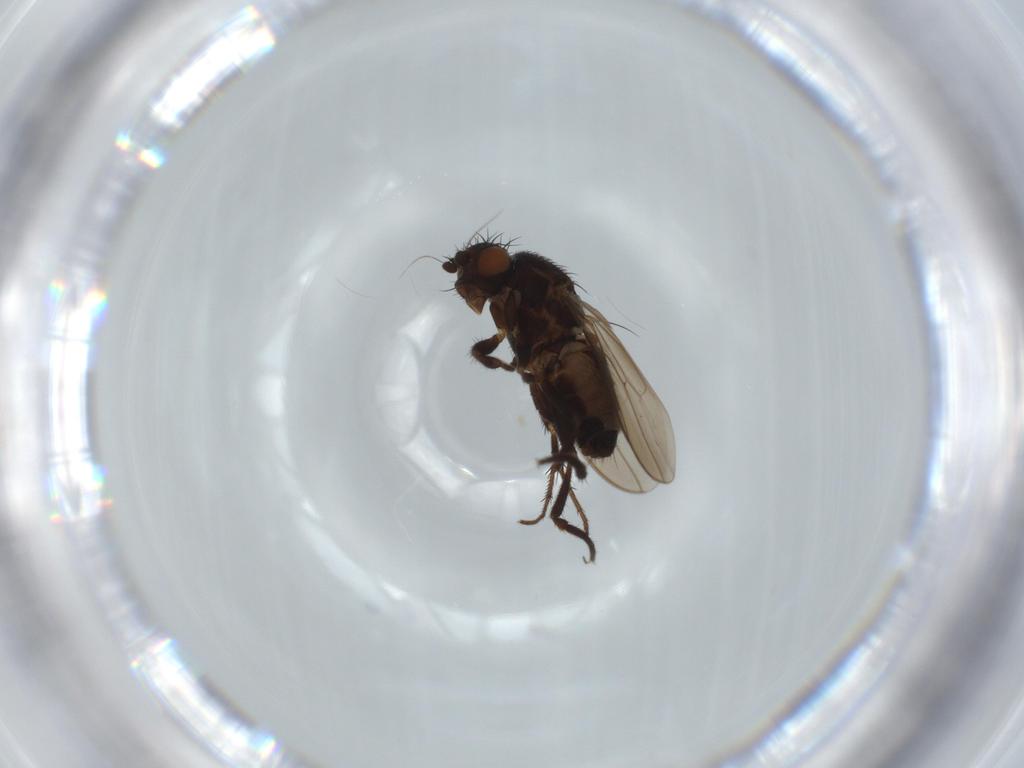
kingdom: Animalia
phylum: Arthropoda
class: Insecta
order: Diptera
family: Sphaeroceridae
